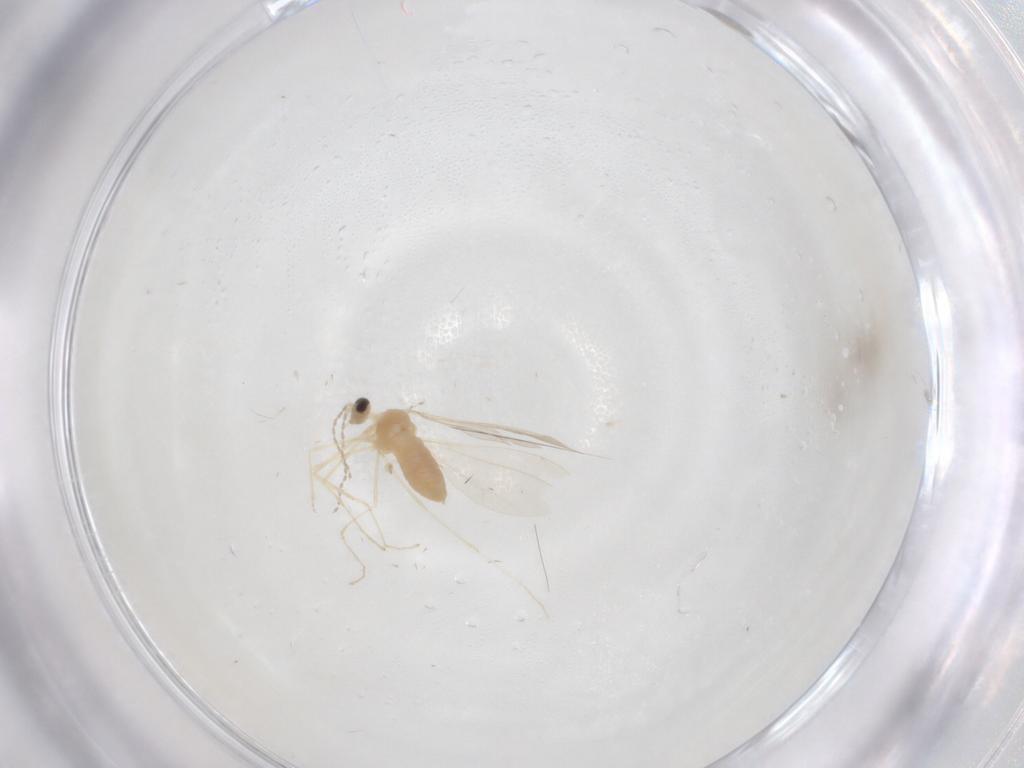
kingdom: Animalia
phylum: Arthropoda
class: Insecta
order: Diptera
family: Cecidomyiidae
